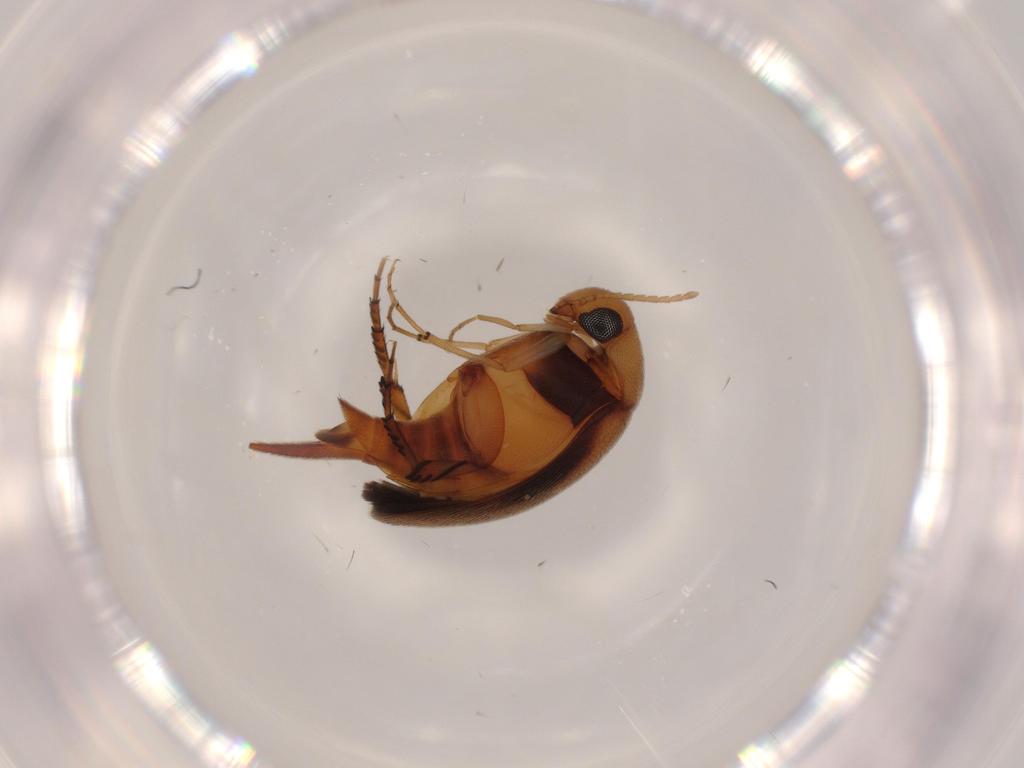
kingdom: Animalia
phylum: Arthropoda
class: Insecta
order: Coleoptera
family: Mordellidae
